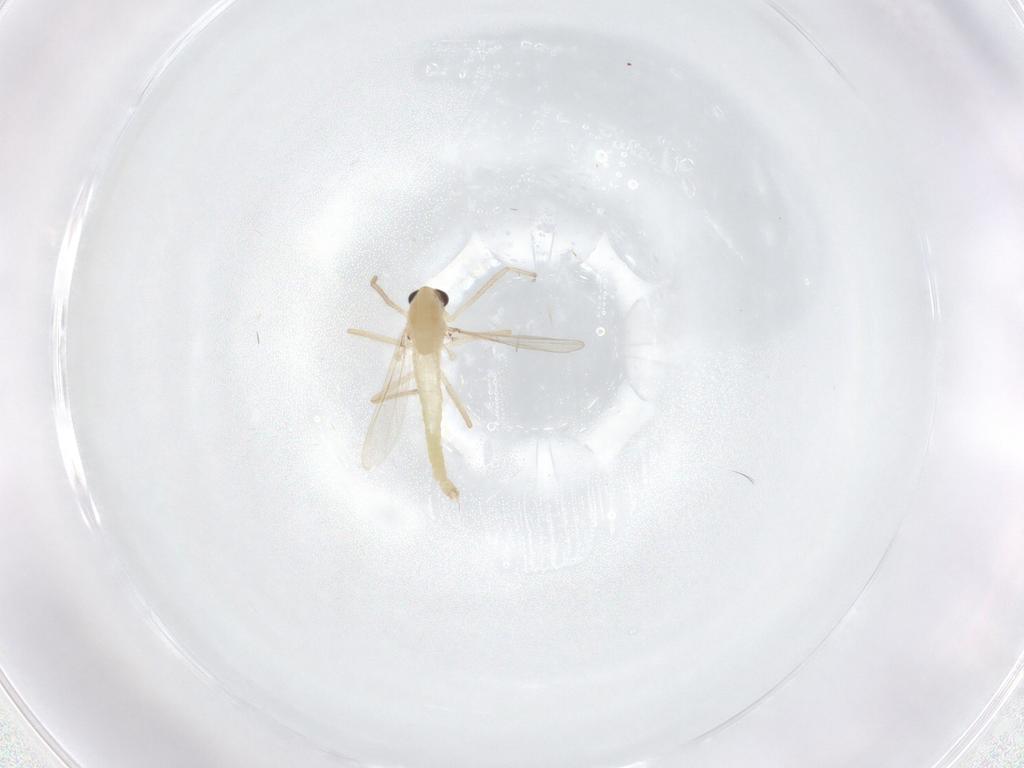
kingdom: Animalia
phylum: Arthropoda
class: Insecta
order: Diptera
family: Chironomidae
